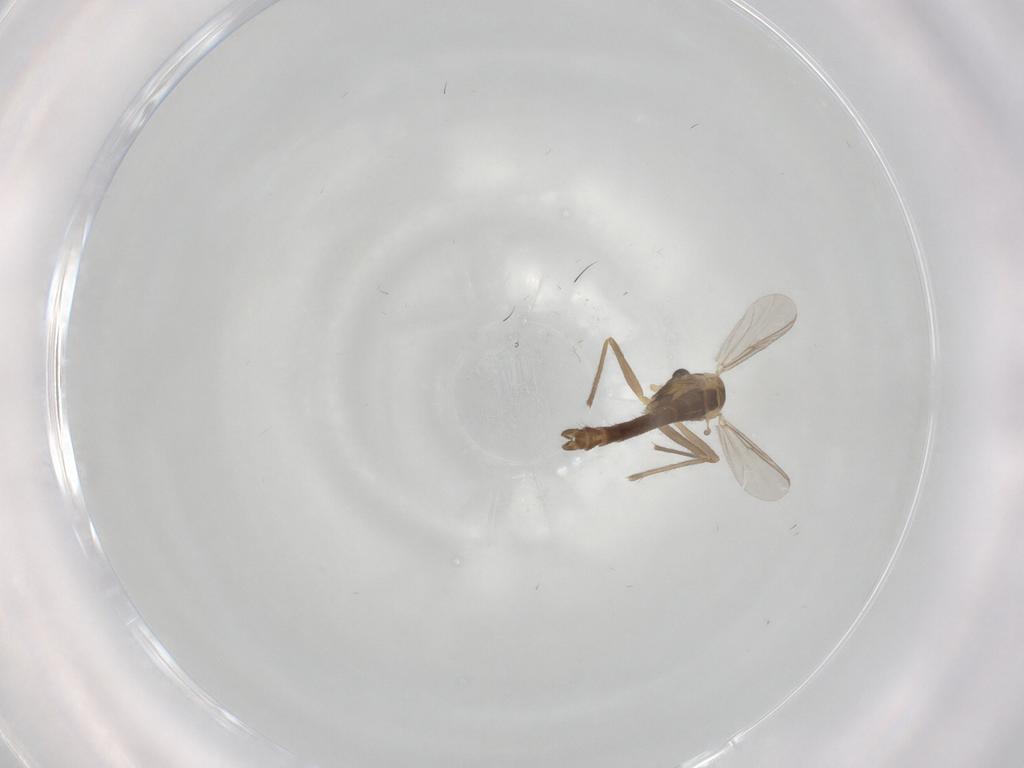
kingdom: Animalia
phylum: Arthropoda
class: Insecta
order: Diptera
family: Chironomidae
